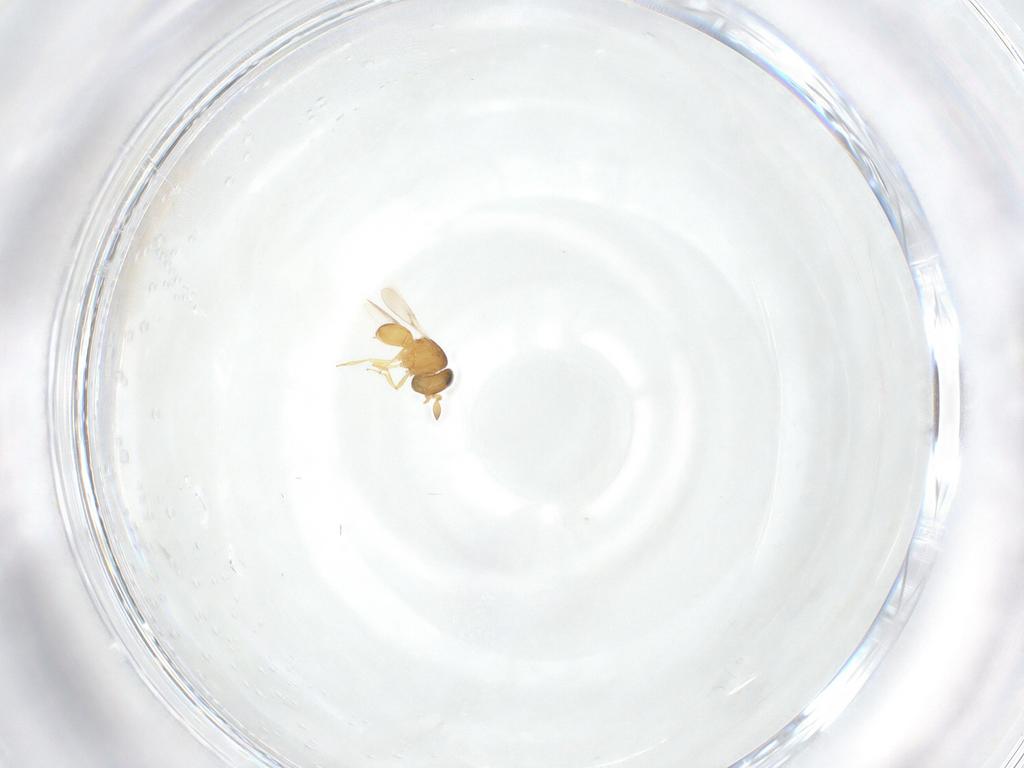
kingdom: Animalia
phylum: Arthropoda
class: Insecta
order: Hymenoptera
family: Scelionidae
